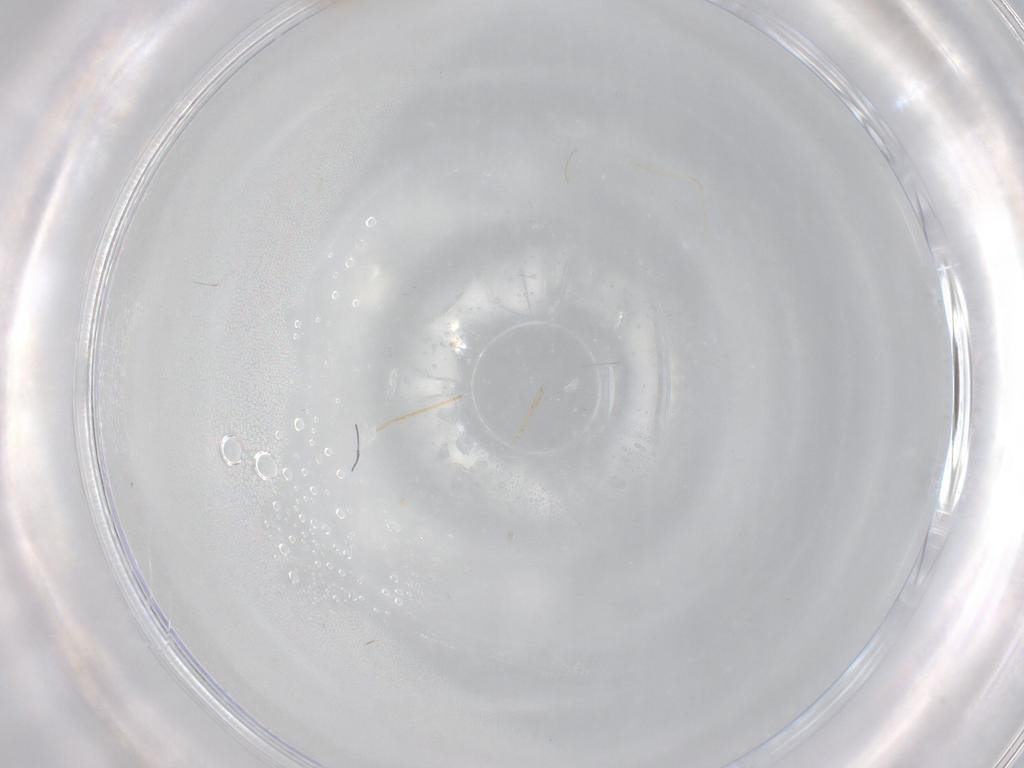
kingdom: Animalia
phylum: Arthropoda
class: Insecta
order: Diptera
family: Cecidomyiidae
